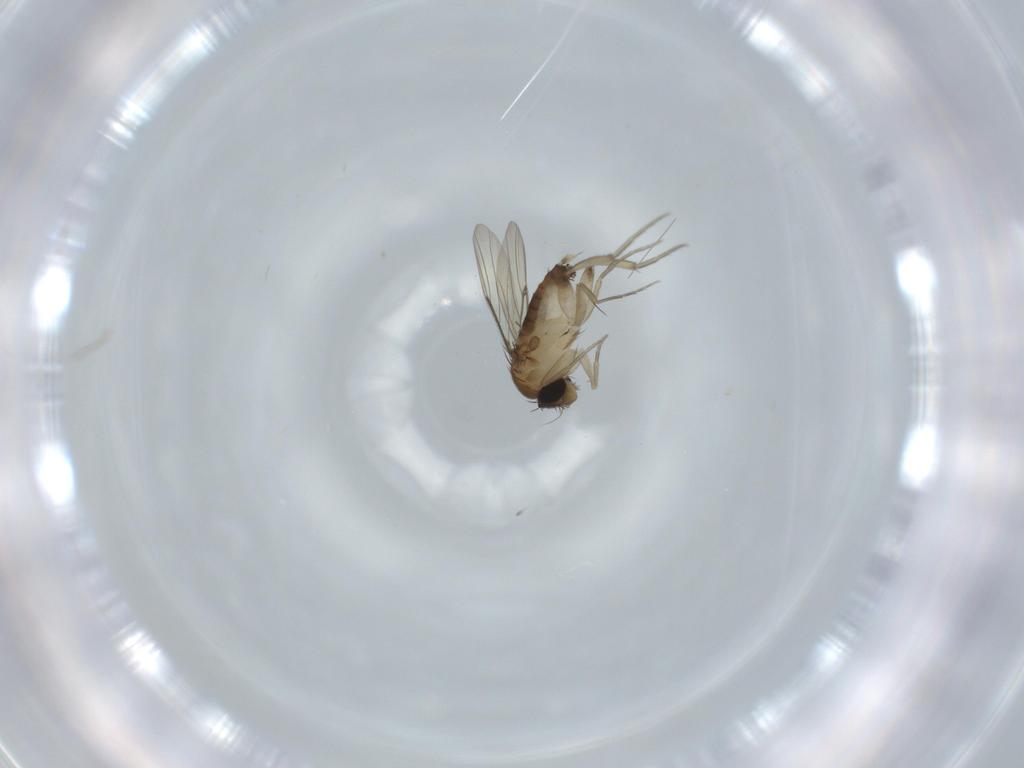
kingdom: Animalia
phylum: Arthropoda
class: Insecta
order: Diptera
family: Phoridae
